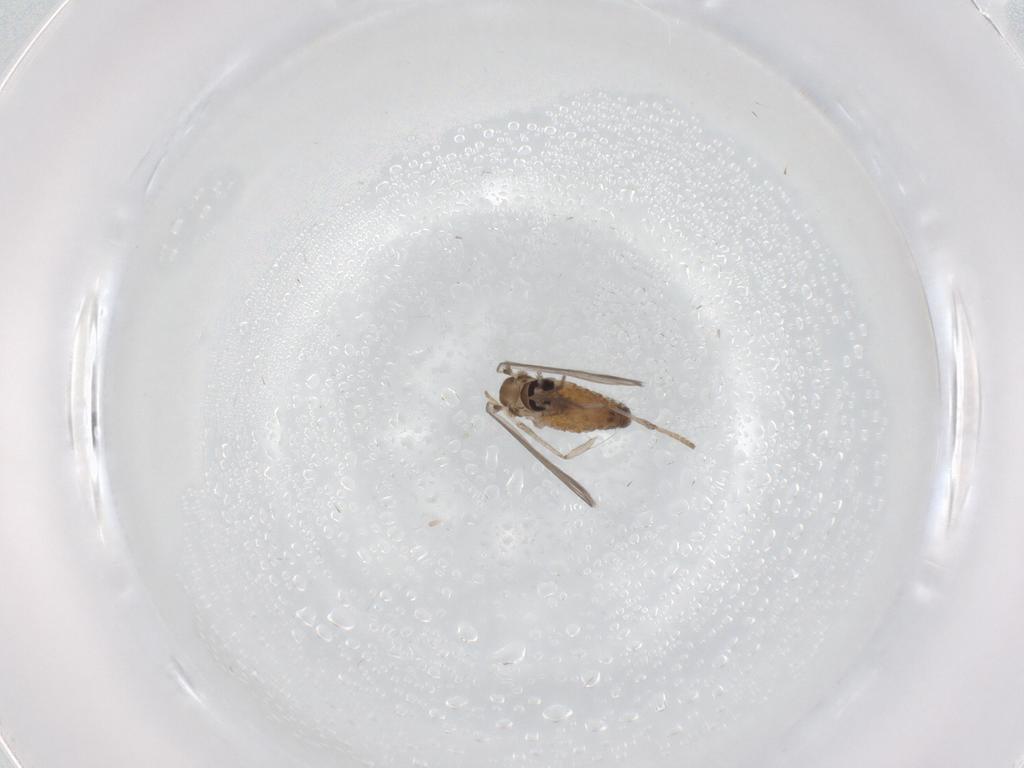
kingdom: Animalia
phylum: Arthropoda
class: Insecta
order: Diptera
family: Psychodidae
